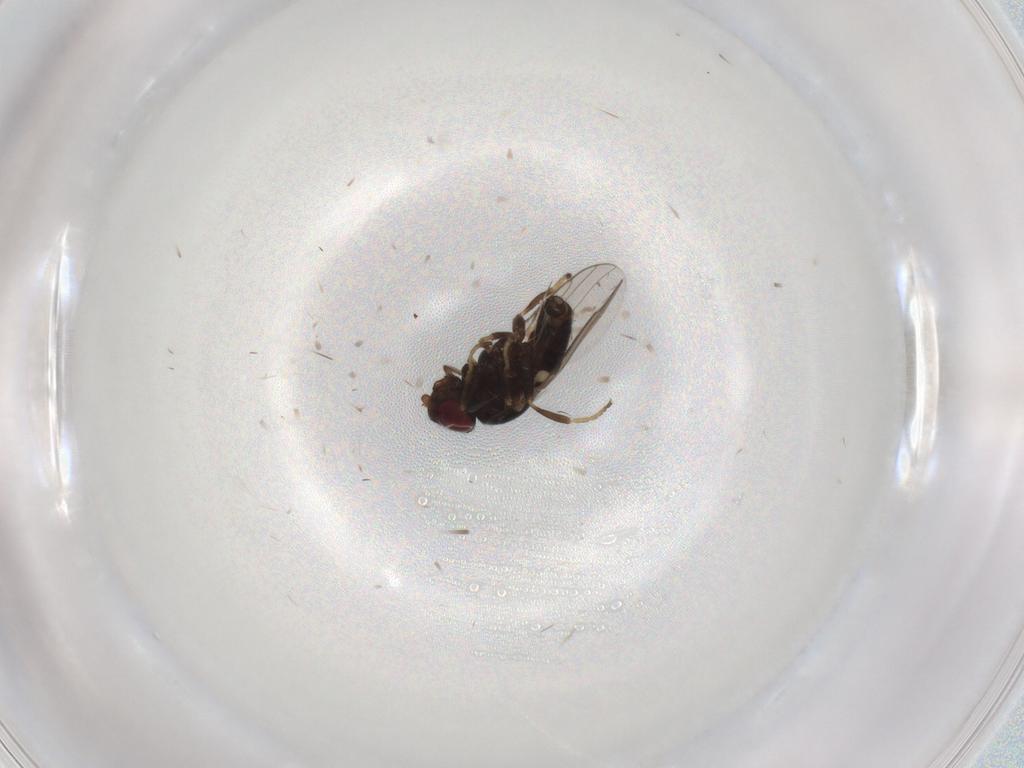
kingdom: Animalia
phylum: Arthropoda
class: Insecta
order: Diptera
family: Chloropidae
